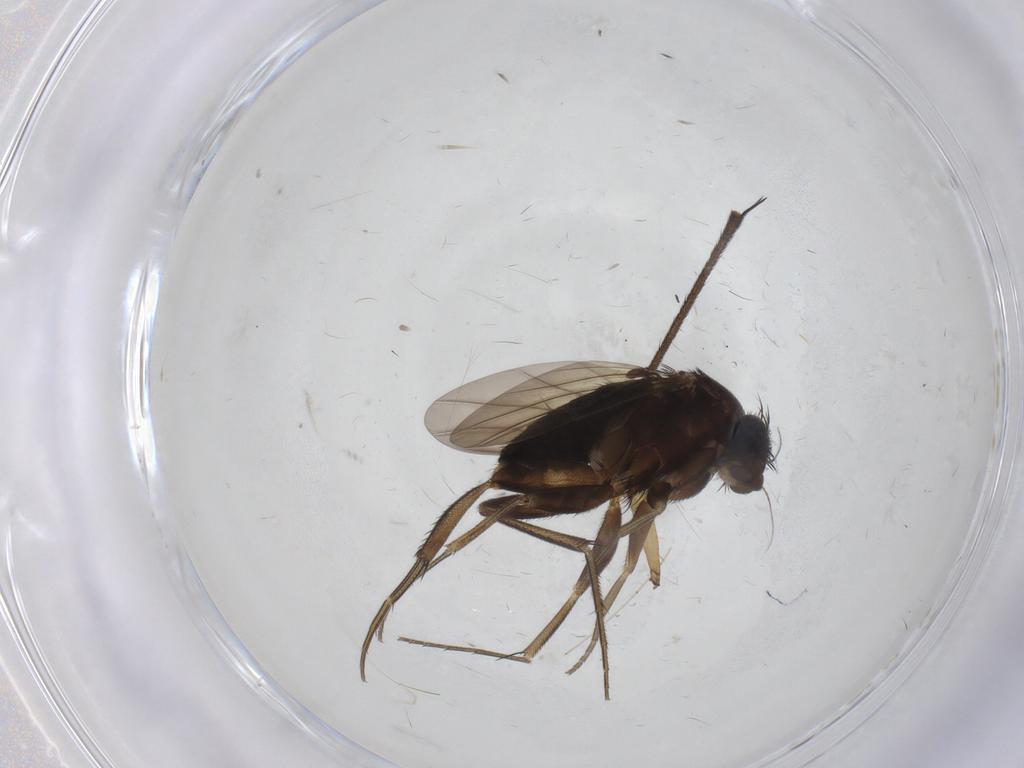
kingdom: Animalia
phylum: Arthropoda
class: Insecta
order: Diptera
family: Phoridae
